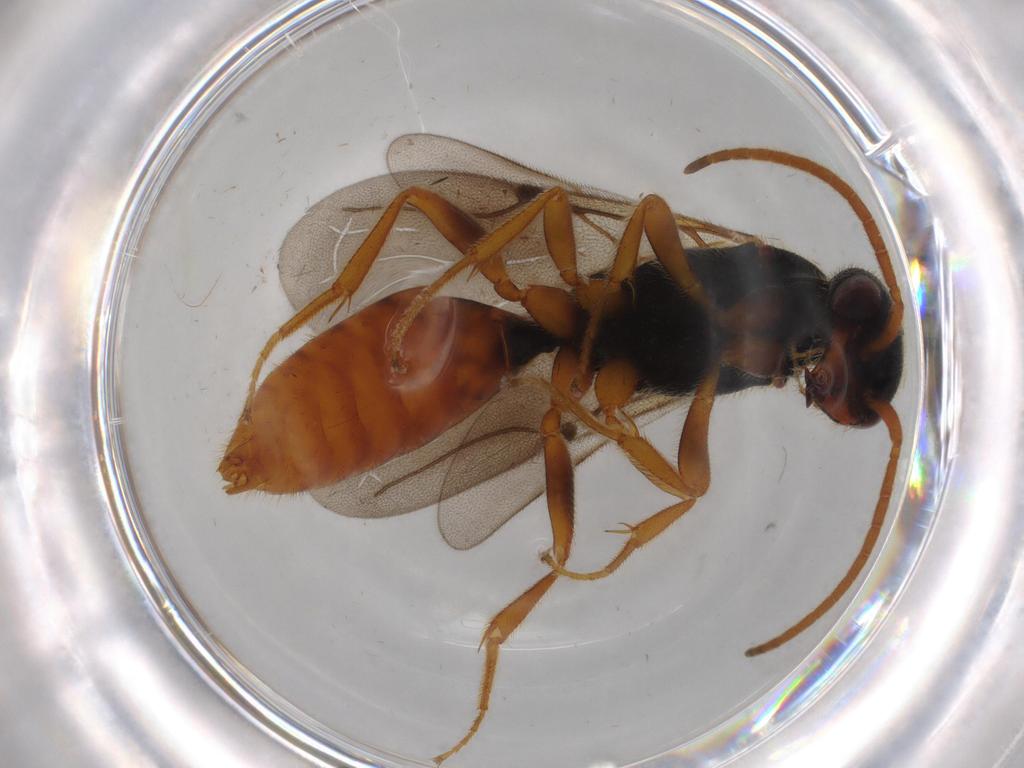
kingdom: Animalia
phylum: Arthropoda
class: Insecta
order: Hymenoptera
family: Bethylidae
